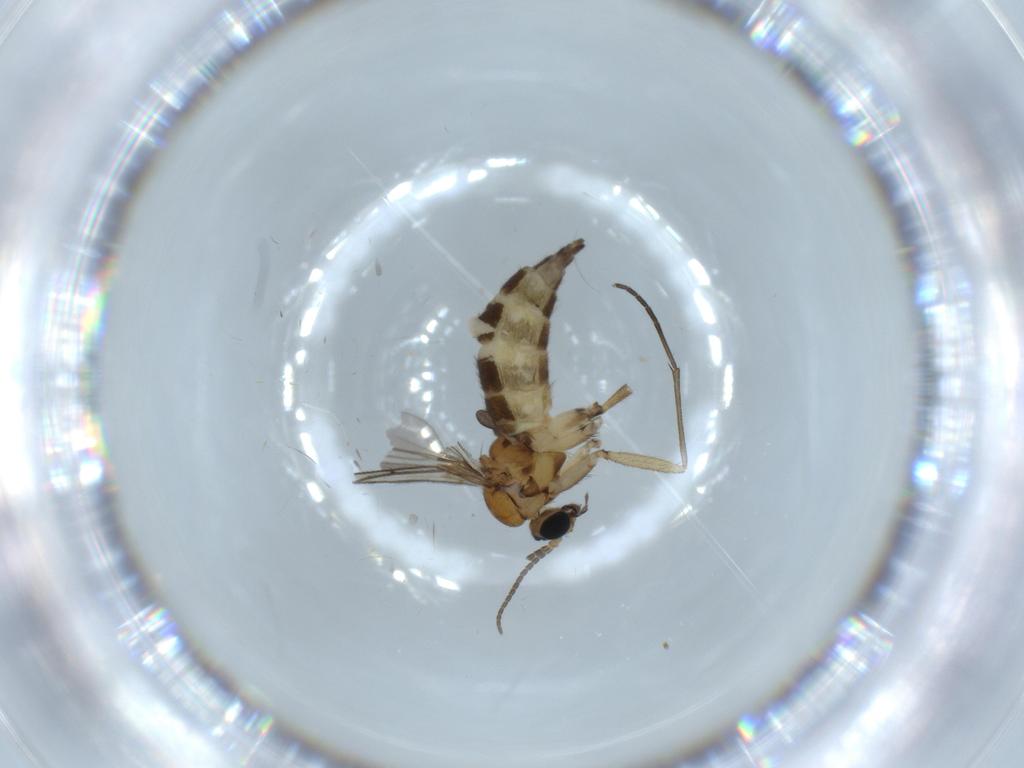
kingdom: Animalia
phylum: Arthropoda
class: Insecta
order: Diptera
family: Sciaridae
